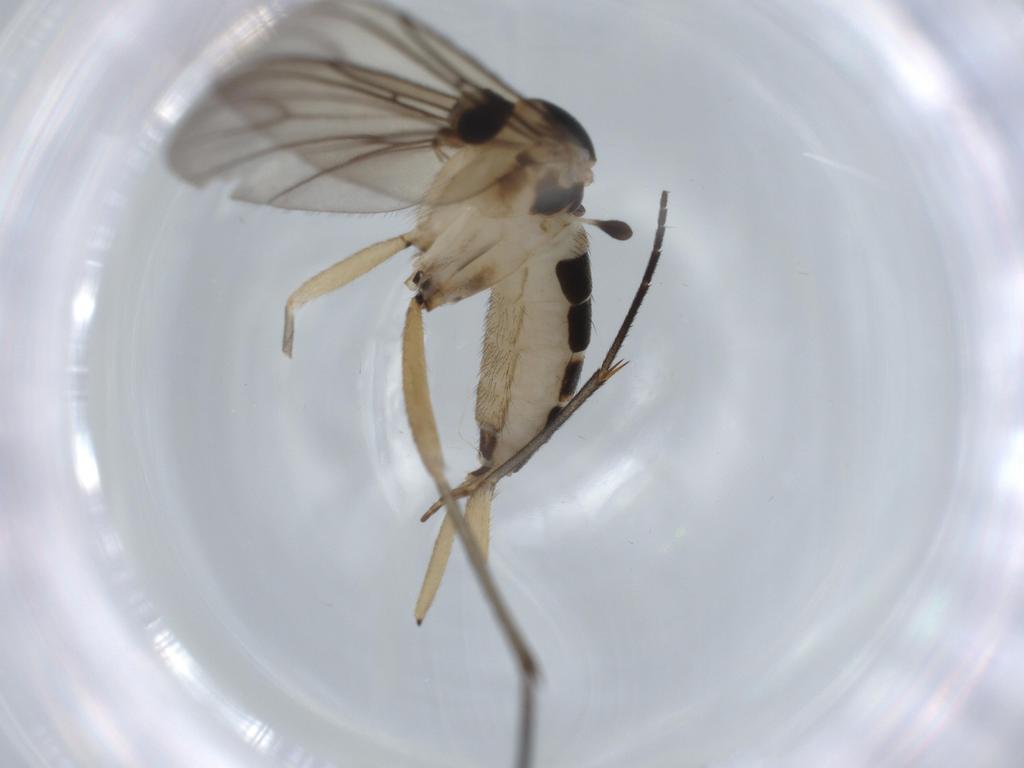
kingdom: Animalia
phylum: Arthropoda
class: Insecta
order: Diptera
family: Sciaridae
